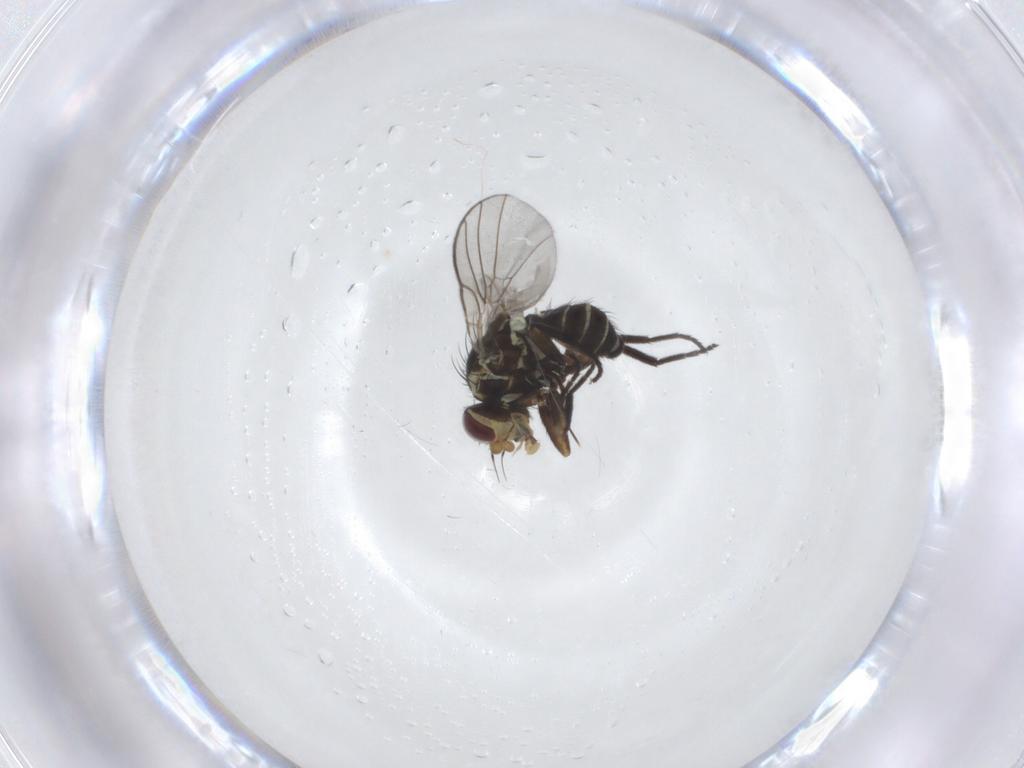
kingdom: Animalia
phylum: Arthropoda
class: Insecta
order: Diptera
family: Agromyzidae
